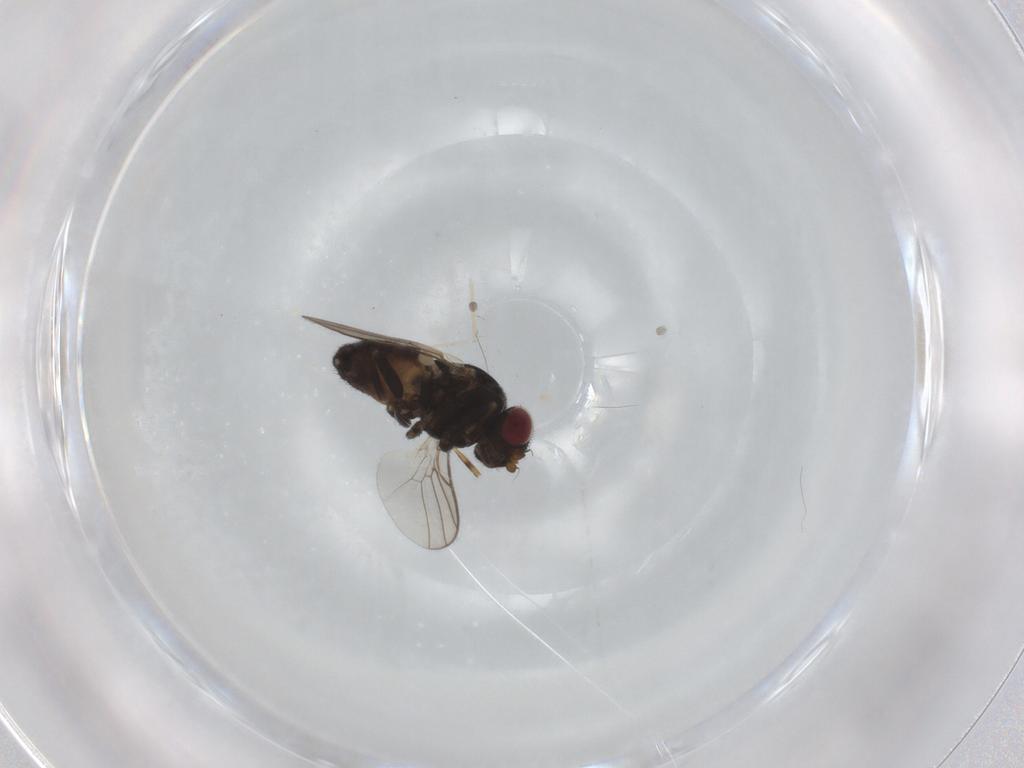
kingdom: Animalia
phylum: Arthropoda
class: Insecta
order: Diptera
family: Chloropidae
